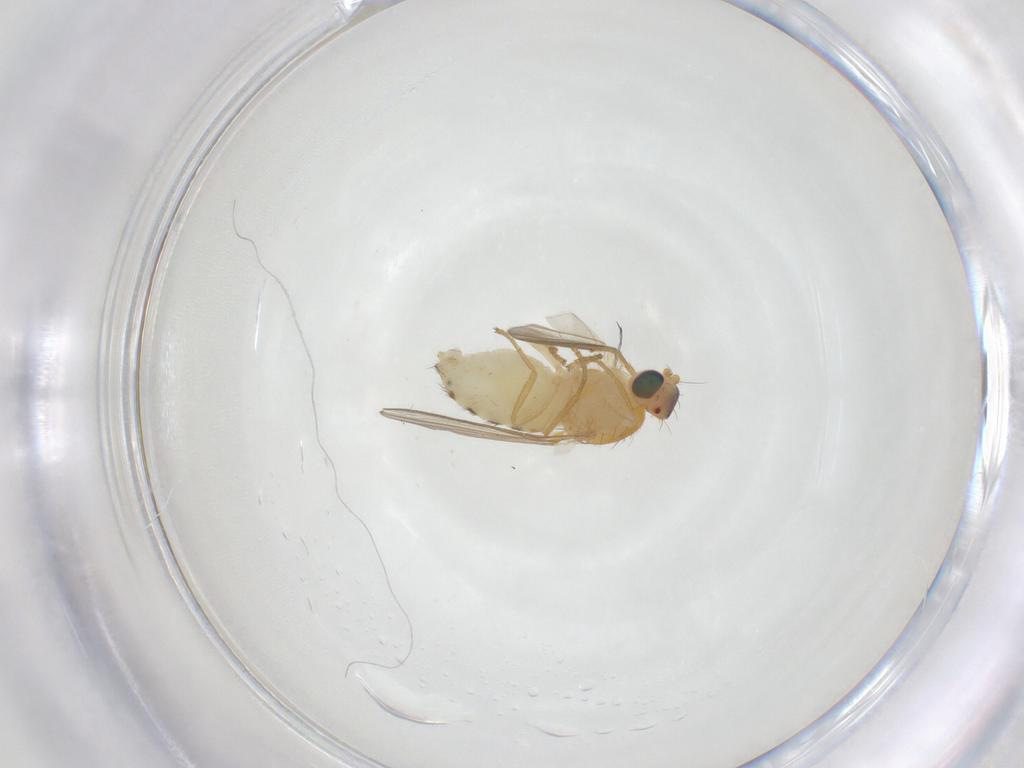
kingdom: Animalia
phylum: Arthropoda
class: Insecta
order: Diptera
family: Chyromyidae
